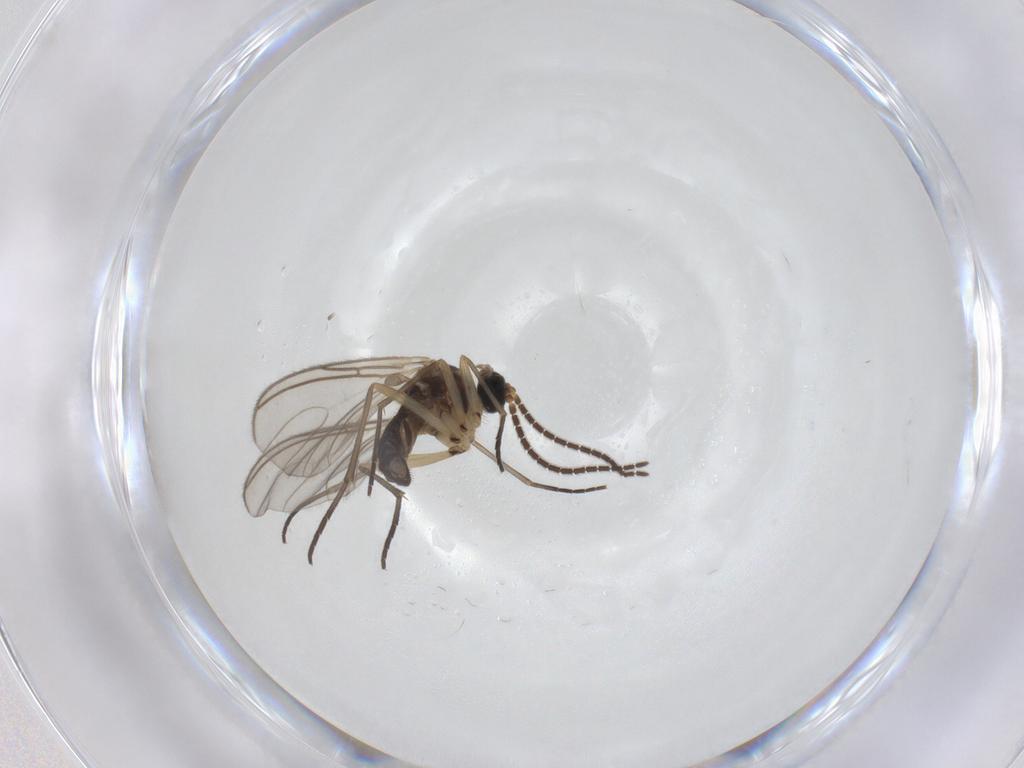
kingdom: Animalia
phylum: Arthropoda
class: Insecta
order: Diptera
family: Sciaridae
